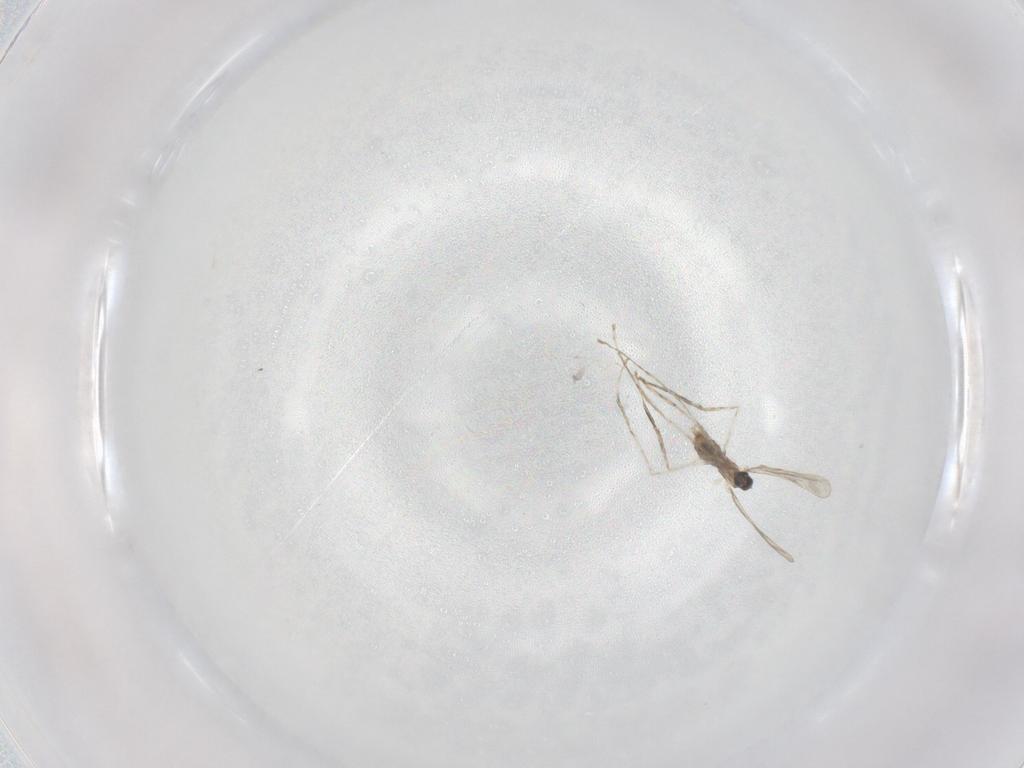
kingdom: Animalia
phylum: Arthropoda
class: Insecta
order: Diptera
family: Cecidomyiidae
